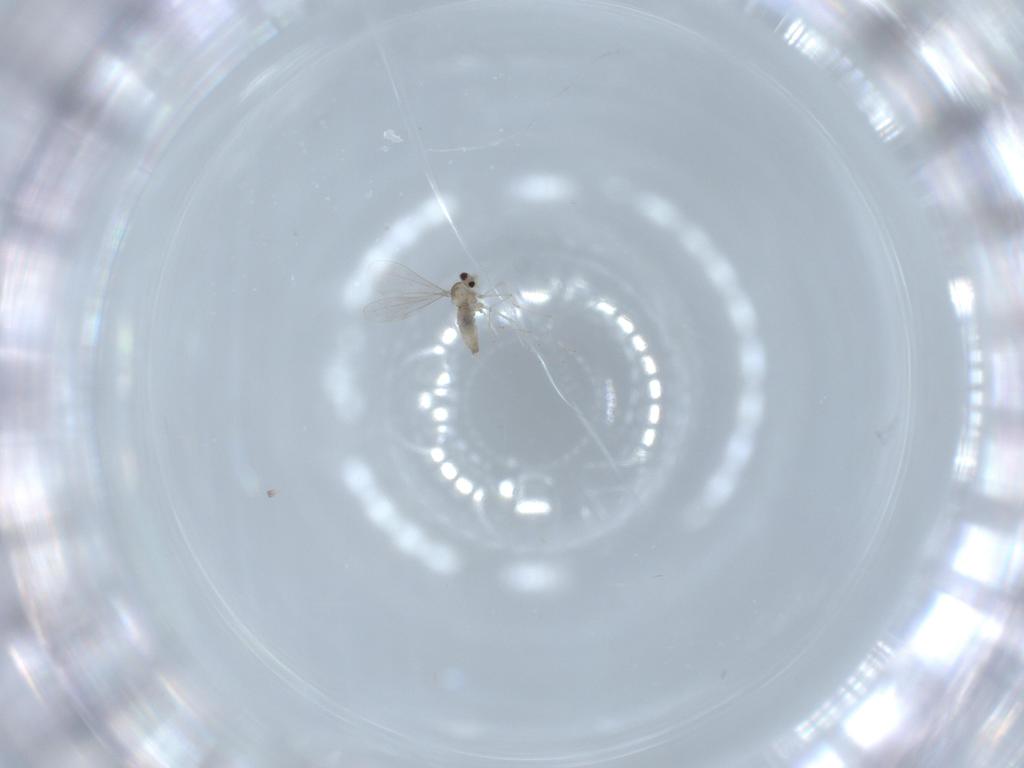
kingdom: Animalia
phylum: Arthropoda
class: Insecta
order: Diptera
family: Cecidomyiidae
